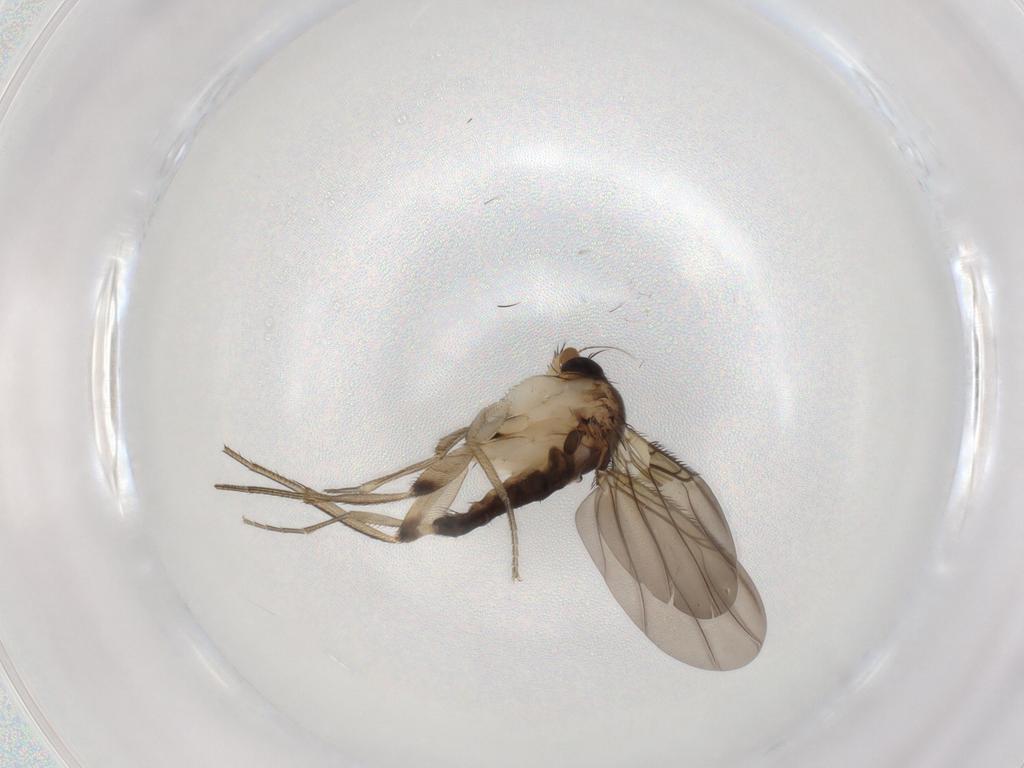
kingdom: Animalia
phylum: Arthropoda
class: Insecta
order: Diptera
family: Phoridae
